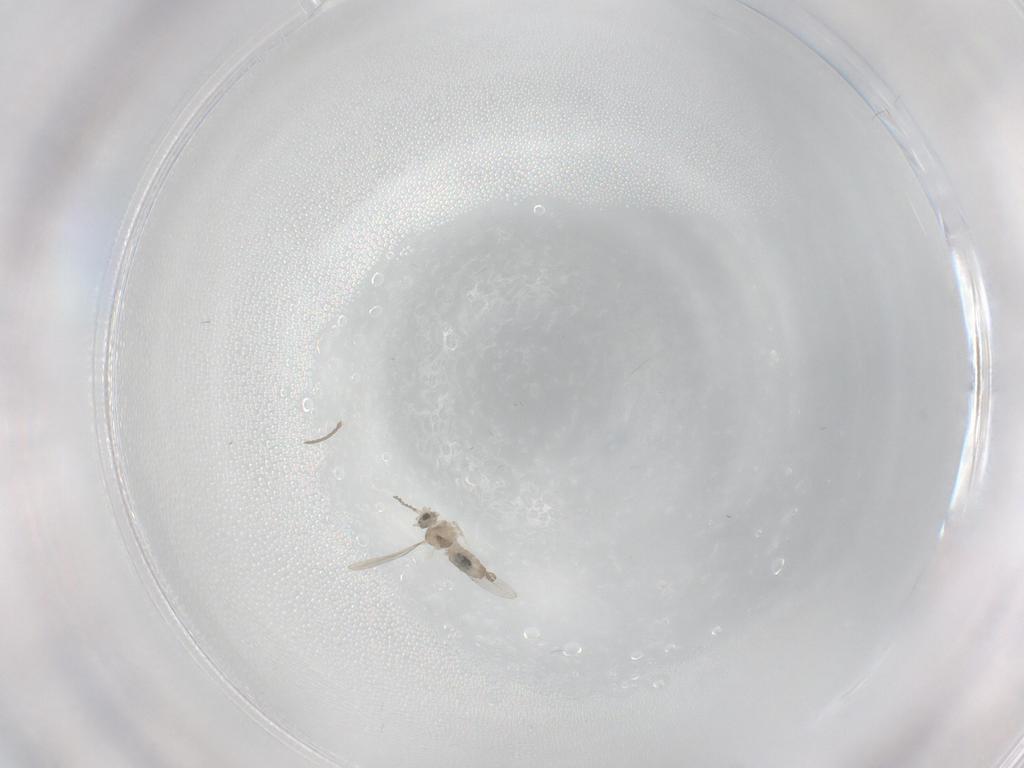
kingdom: Animalia
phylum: Arthropoda
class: Insecta
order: Diptera
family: Cecidomyiidae
